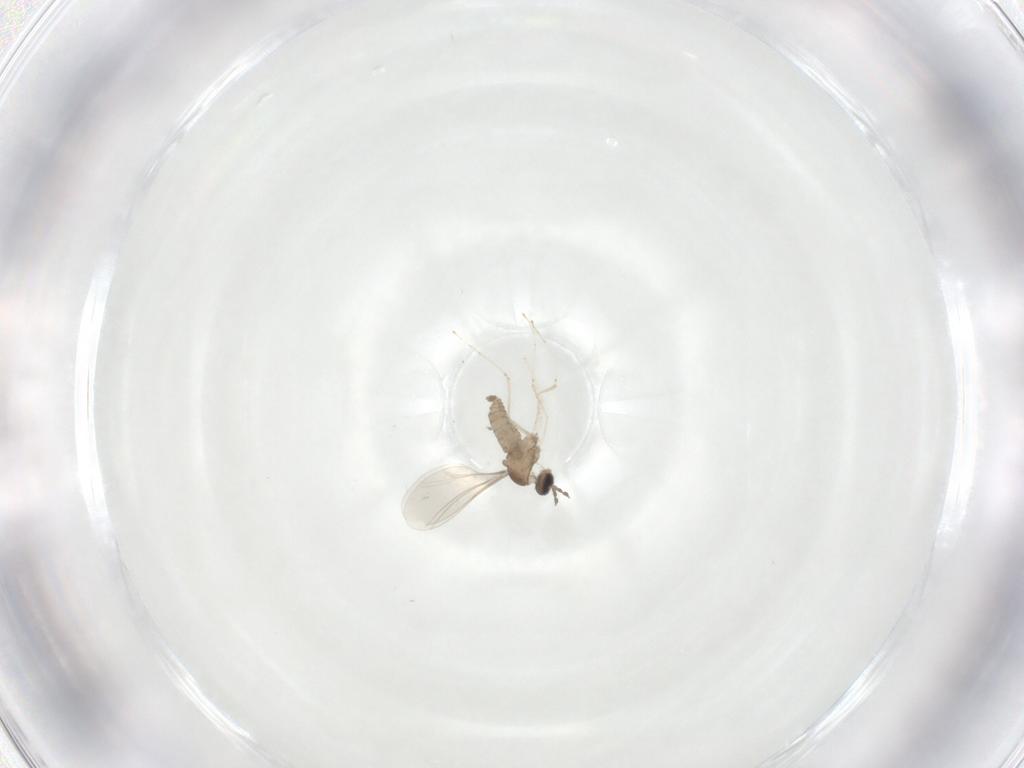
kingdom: Animalia
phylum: Arthropoda
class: Insecta
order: Diptera
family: Cecidomyiidae
